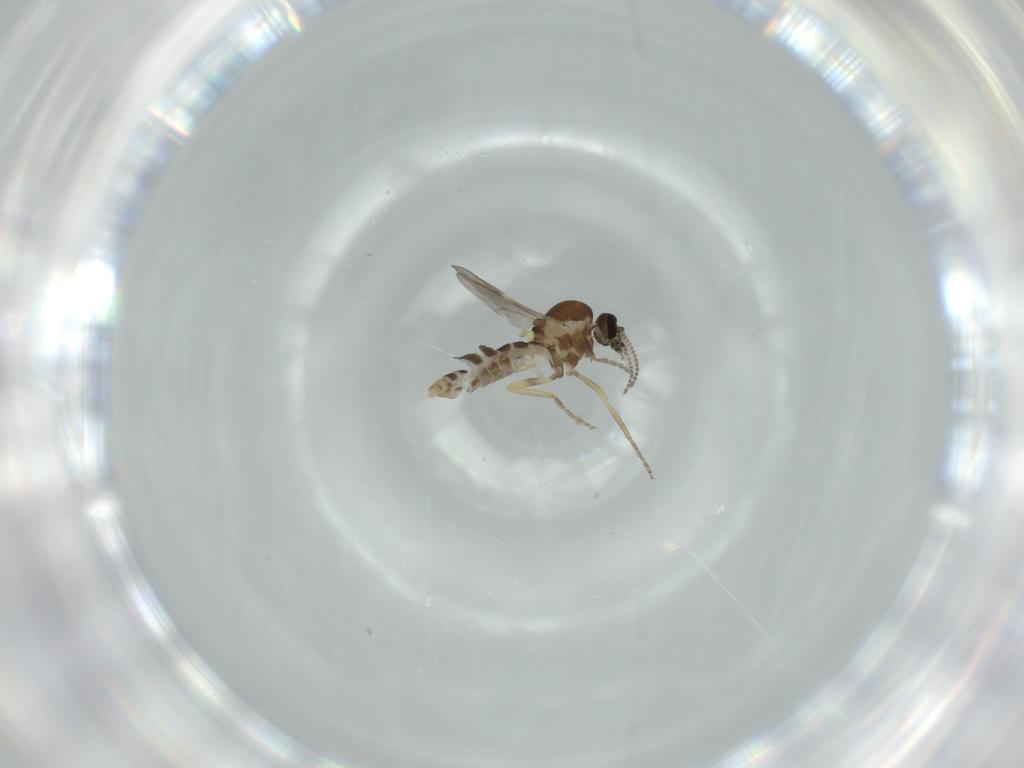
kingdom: Animalia
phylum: Arthropoda
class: Insecta
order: Diptera
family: Ceratopogonidae
